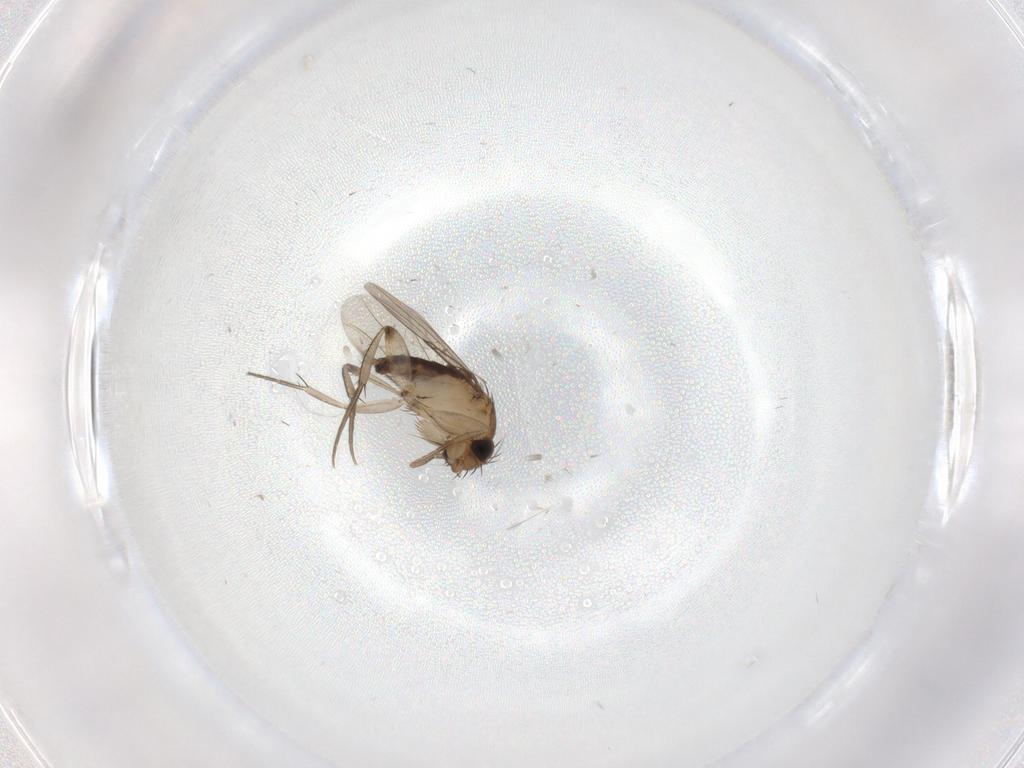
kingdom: Animalia
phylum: Arthropoda
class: Insecta
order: Diptera
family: Phoridae
